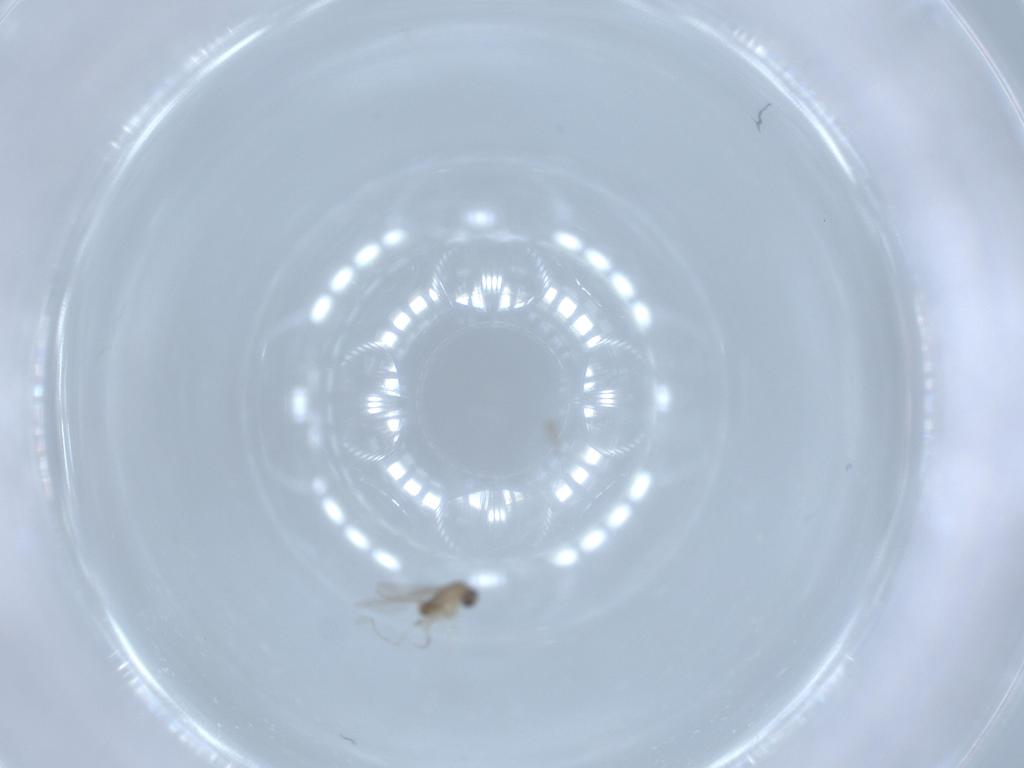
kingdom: Animalia
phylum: Arthropoda
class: Insecta
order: Diptera
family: Cecidomyiidae
